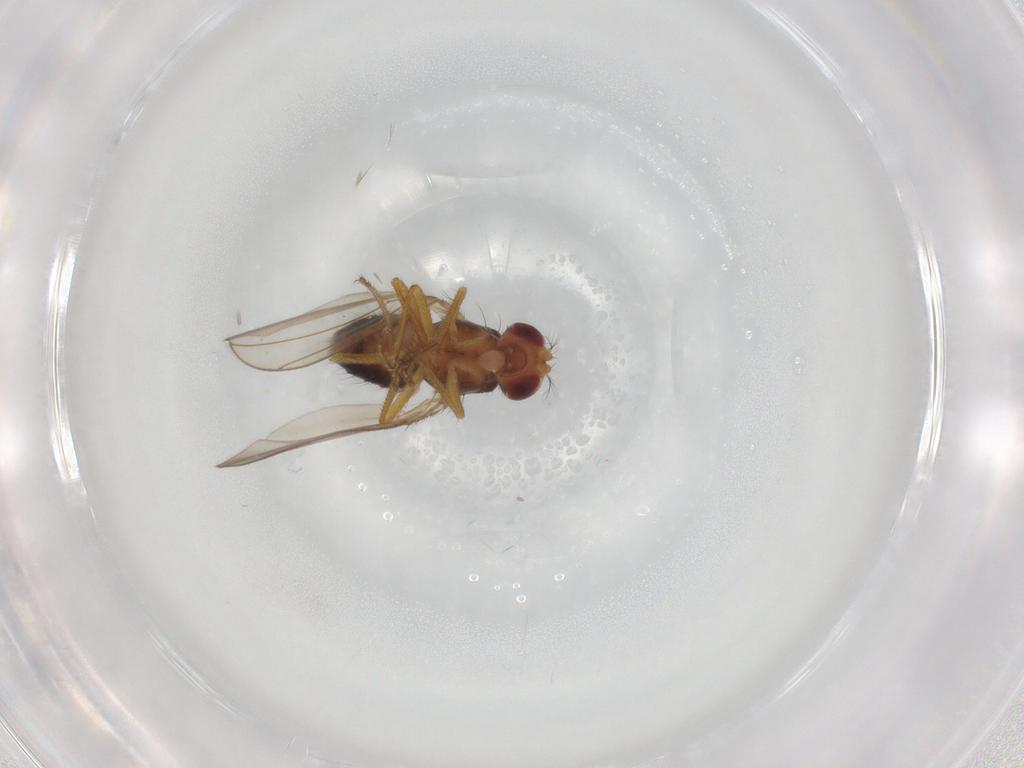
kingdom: Animalia
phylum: Arthropoda
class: Insecta
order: Diptera
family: Drosophilidae
